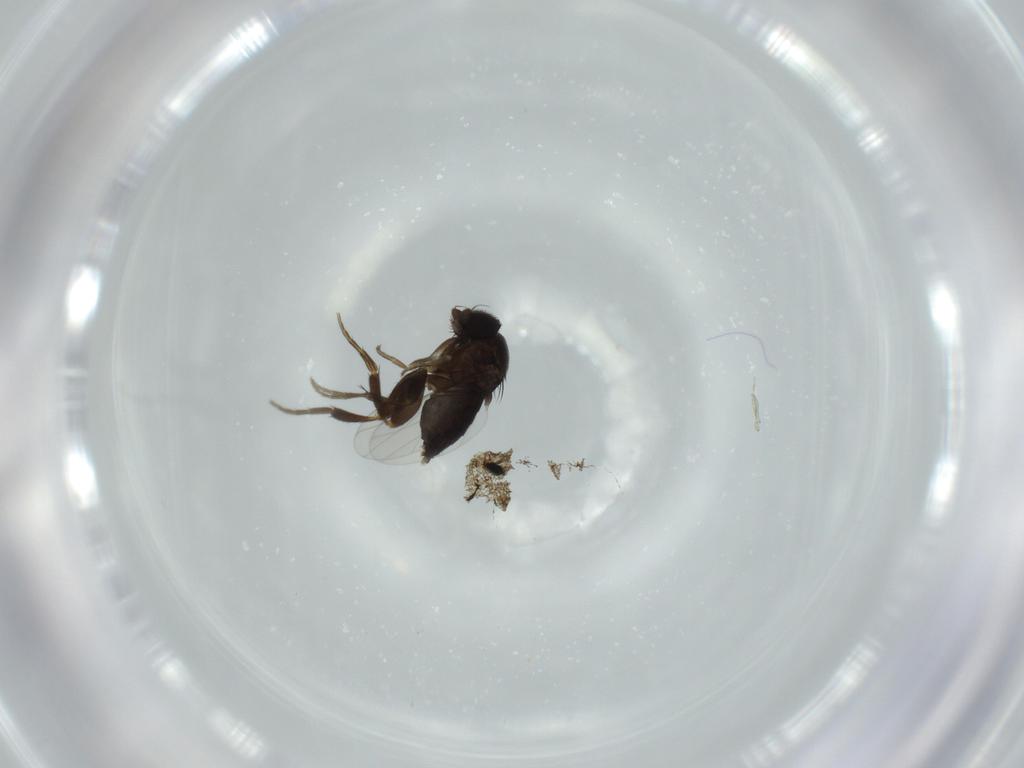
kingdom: Animalia
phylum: Arthropoda
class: Insecta
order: Diptera
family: Phoridae
